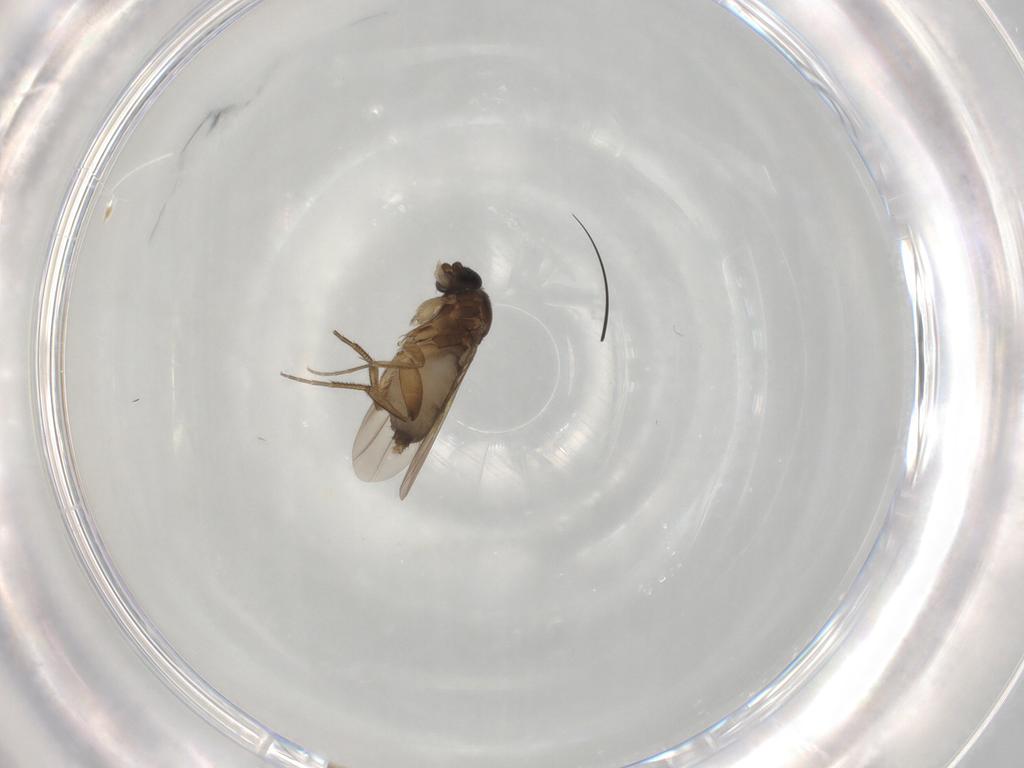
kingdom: Animalia
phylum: Arthropoda
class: Insecta
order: Diptera
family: Phoridae
